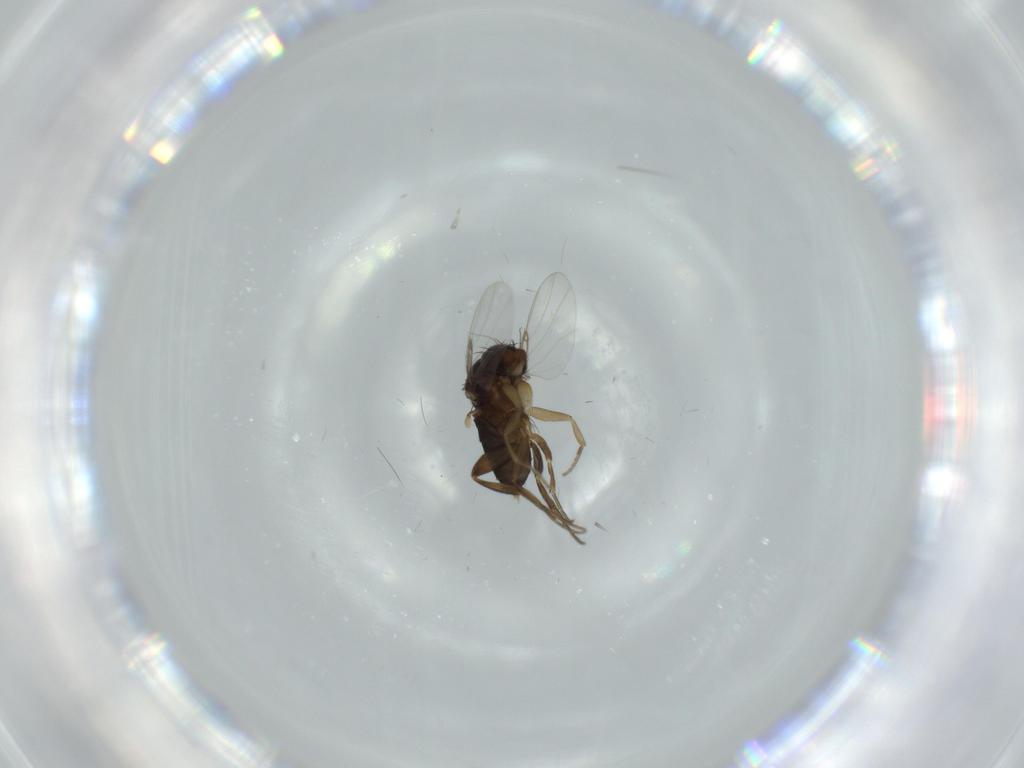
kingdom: Animalia
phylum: Arthropoda
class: Insecta
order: Diptera
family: Phoridae
